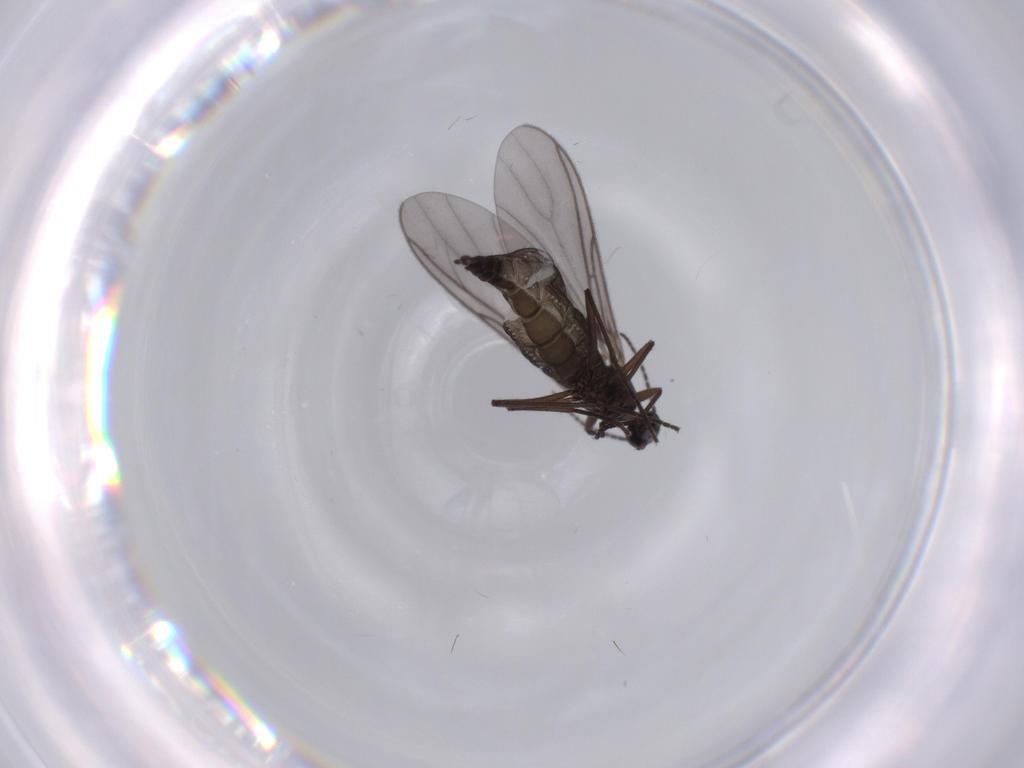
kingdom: Animalia
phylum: Arthropoda
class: Insecta
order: Diptera
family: Sciaridae
